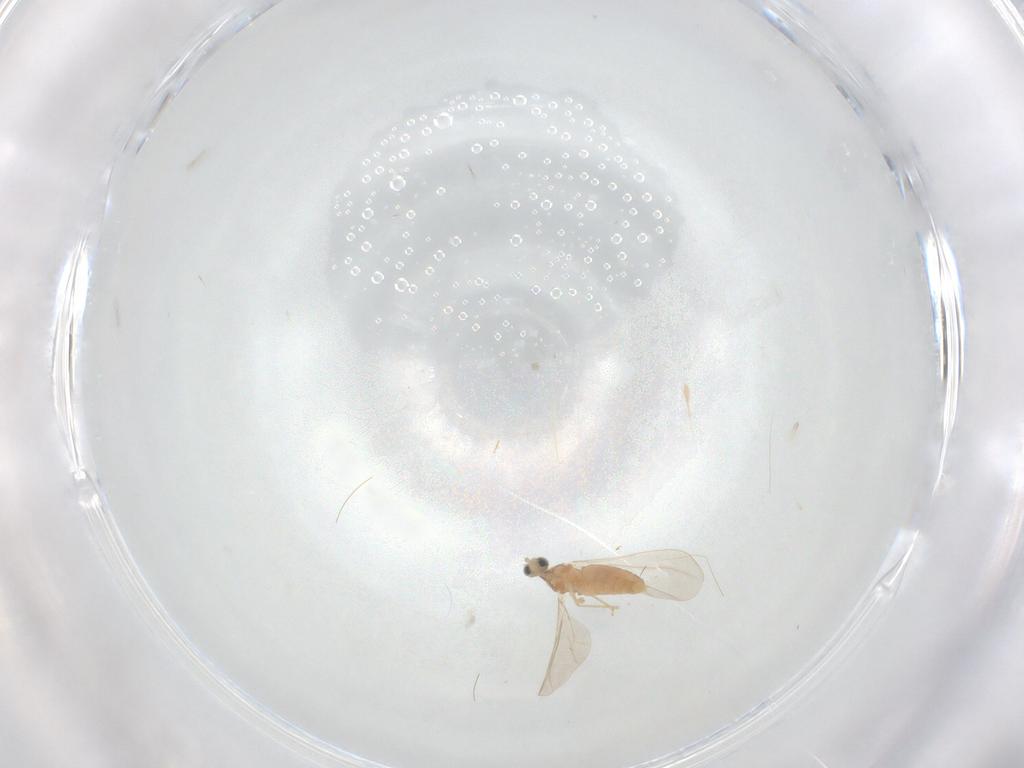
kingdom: Animalia
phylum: Arthropoda
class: Insecta
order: Diptera
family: Cecidomyiidae
